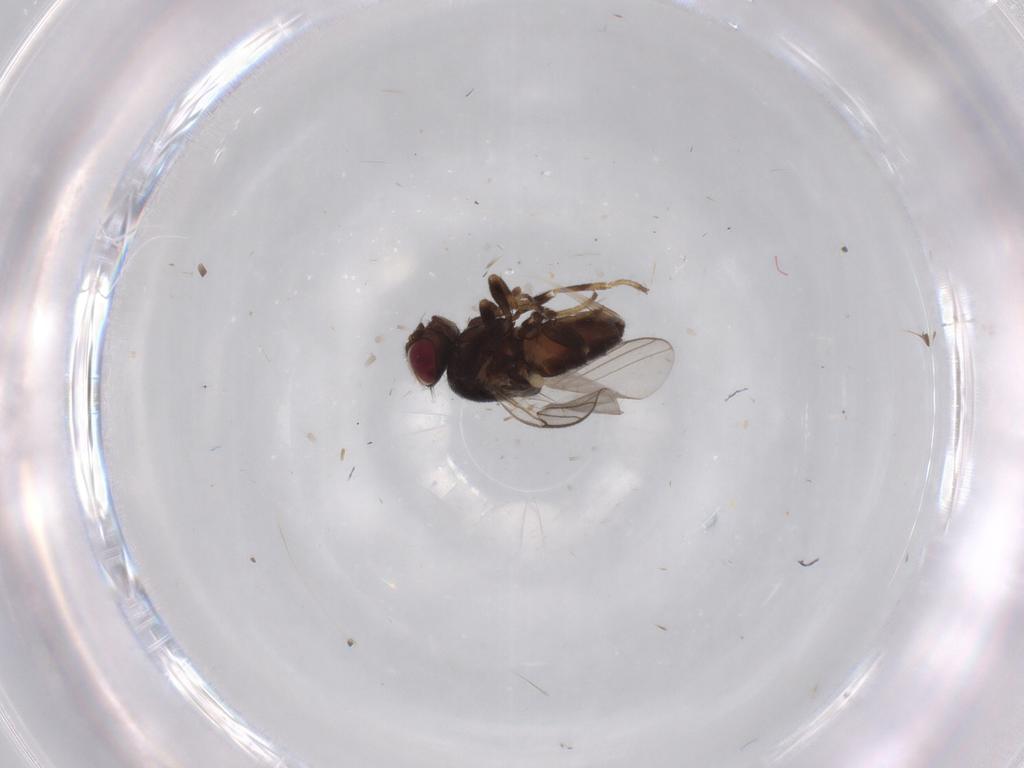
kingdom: Animalia
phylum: Arthropoda
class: Insecta
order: Diptera
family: Chloropidae
